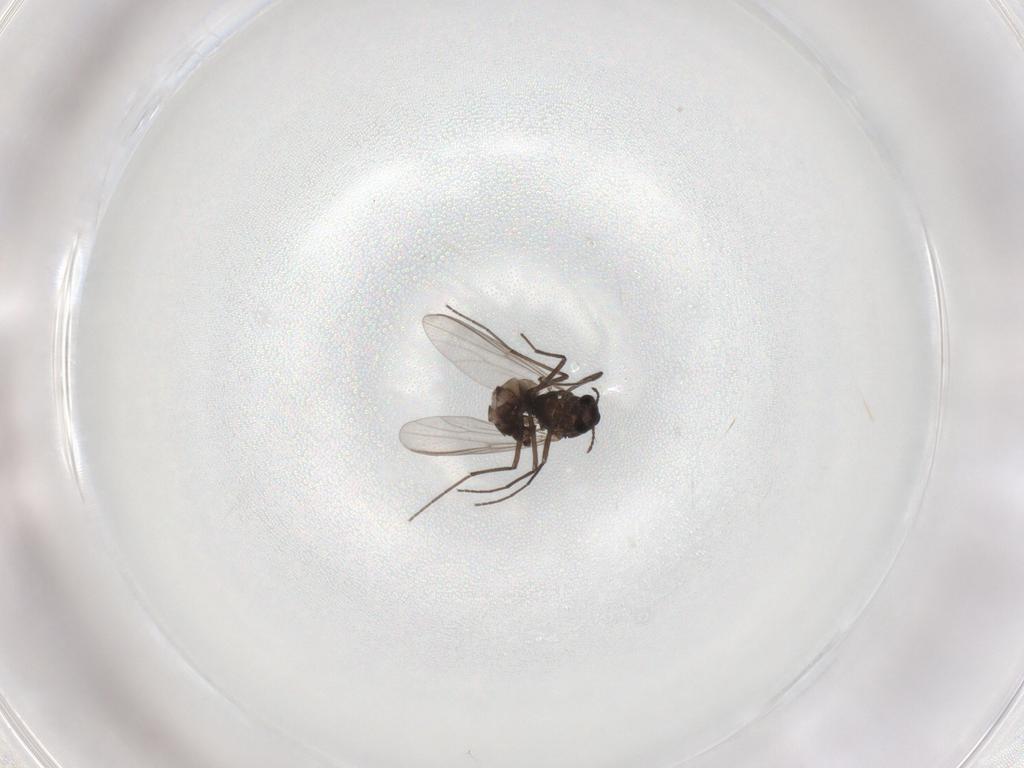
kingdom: Animalia
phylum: Arthropoda
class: Insecta
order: Diptera
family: Chironomidae
